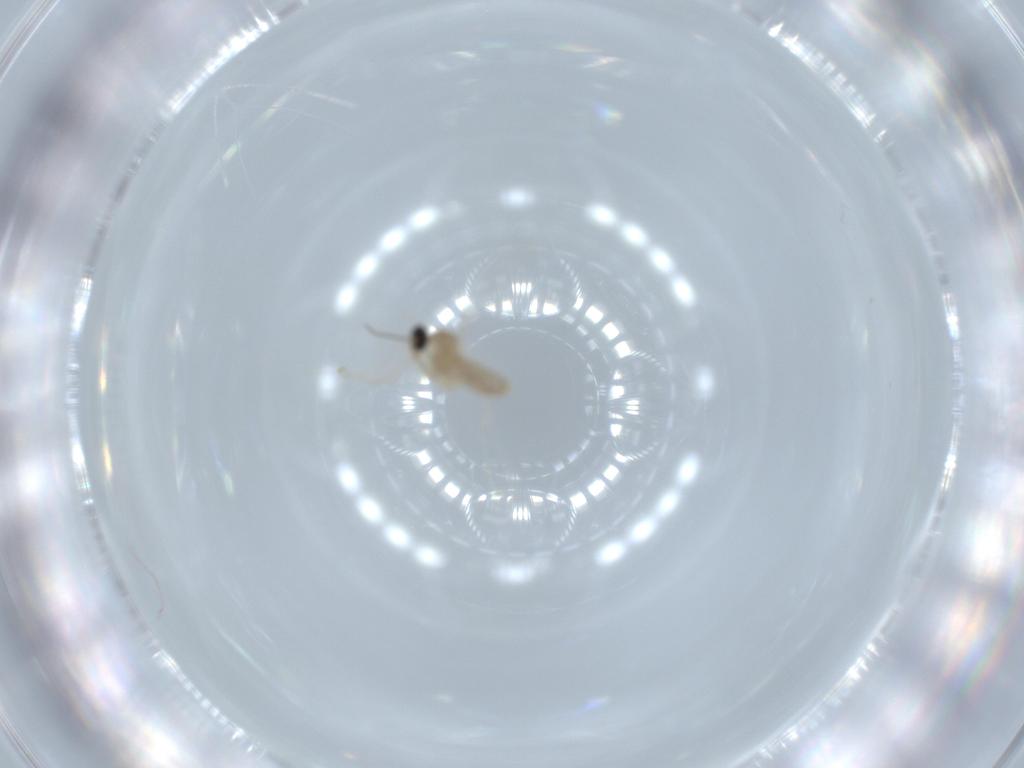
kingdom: Animalia
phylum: Arthropoda
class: Insecta
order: Diptera
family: Cecidomyiidae
